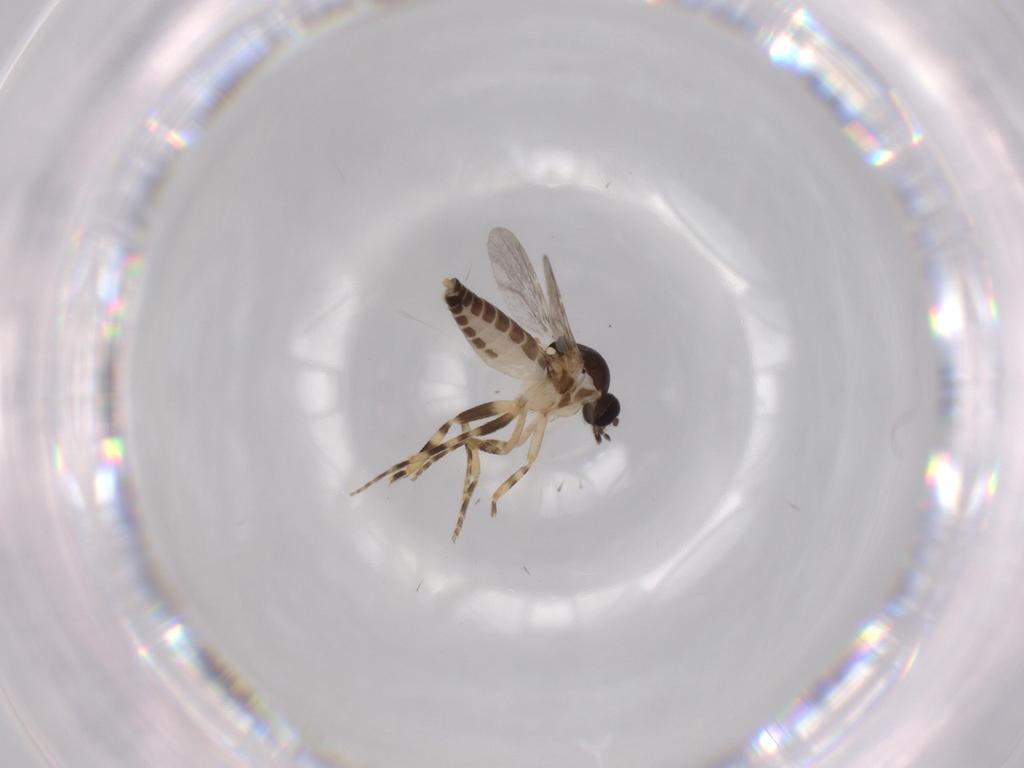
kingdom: Animalia
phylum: Arthropoda
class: Insecta
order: Diptera
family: Ceratopogonidae
